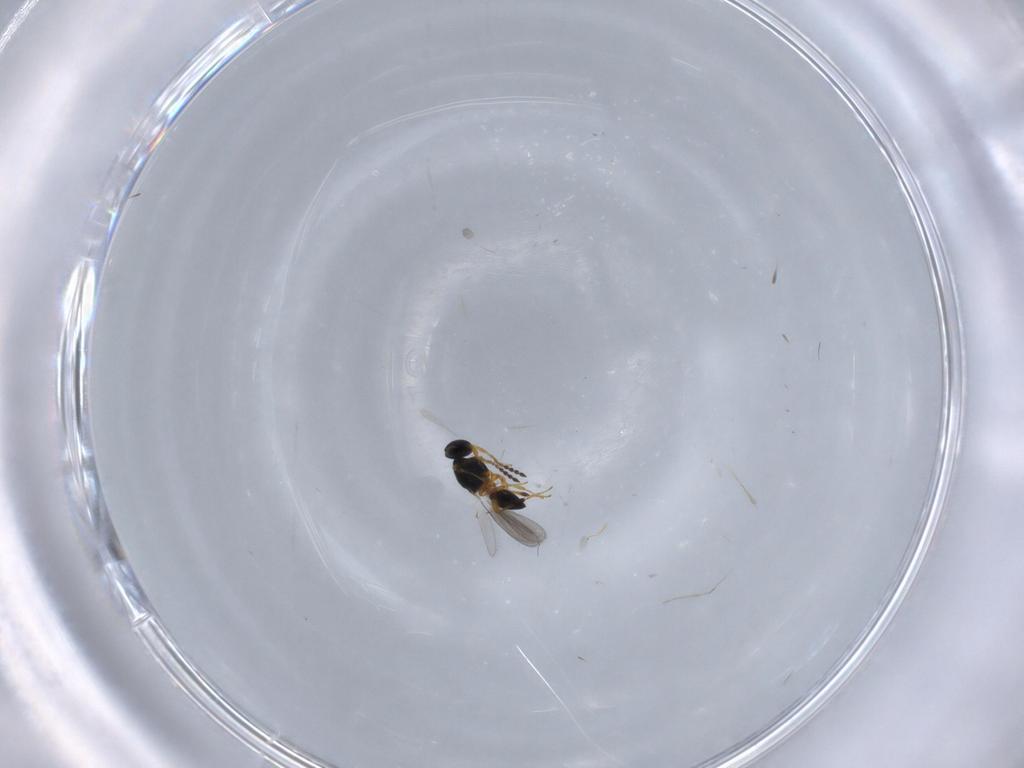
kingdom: Animalia
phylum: Arthropoda
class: Insecta
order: Hymenoptera
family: Platygastridae
